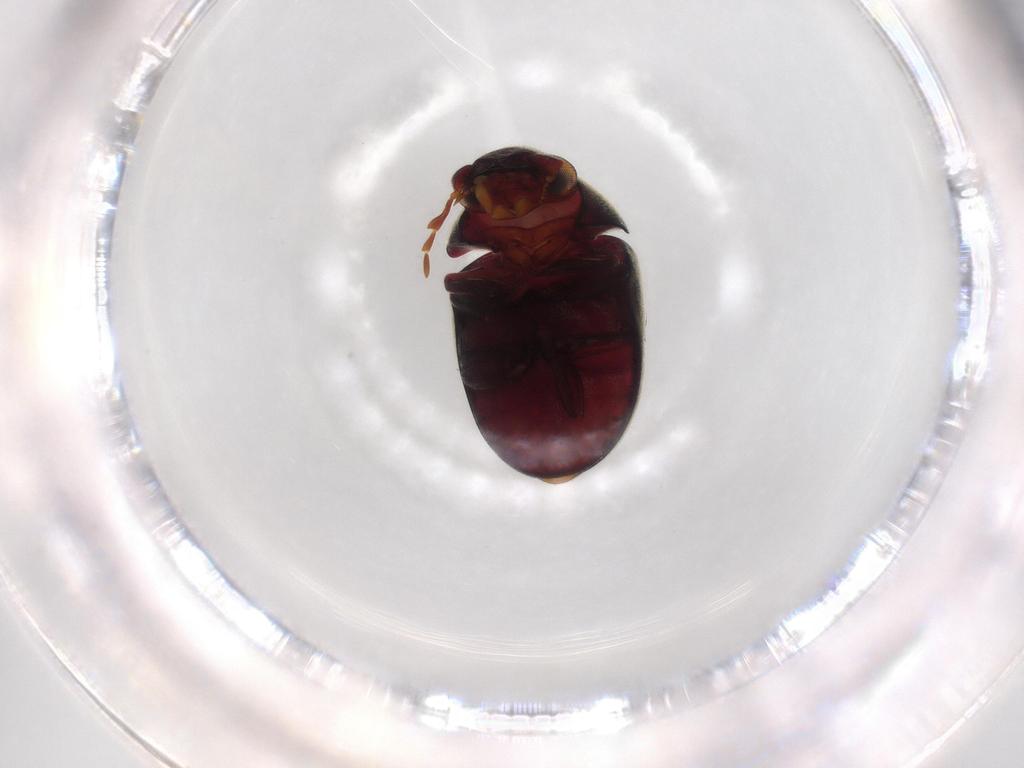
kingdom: Animalia
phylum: Arthropoda
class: Insecta
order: Coleoptera
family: Ptinidae
